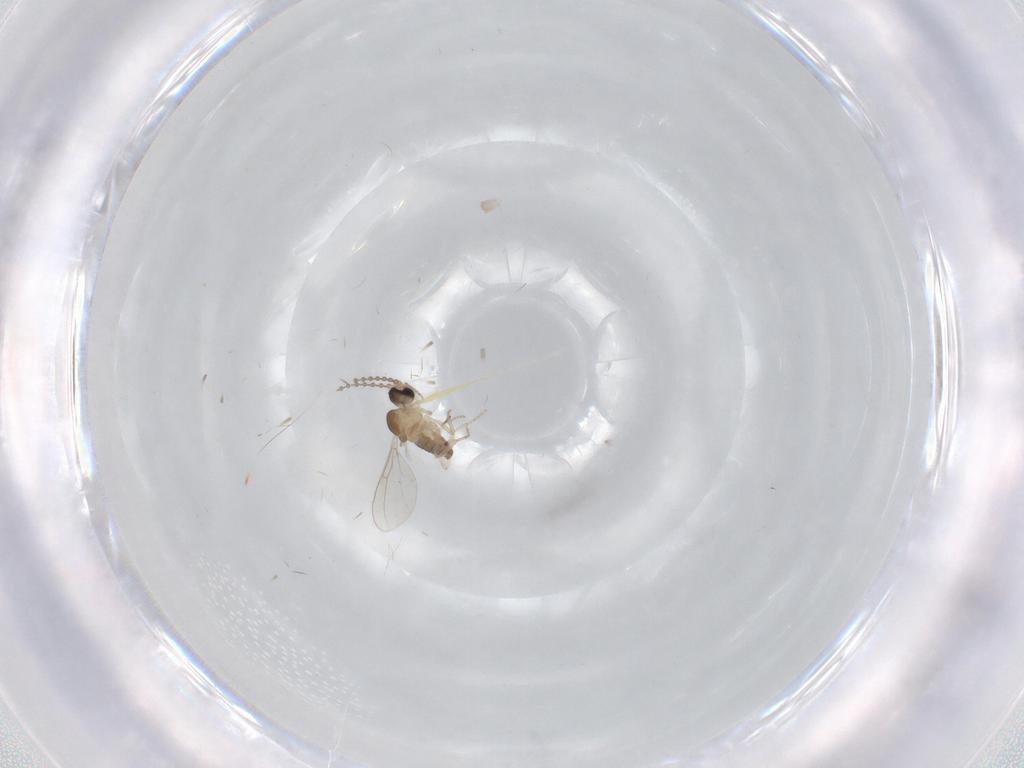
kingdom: Animalia
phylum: Arthropoda
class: Insecta
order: Diptera
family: Cecidomyiidae
